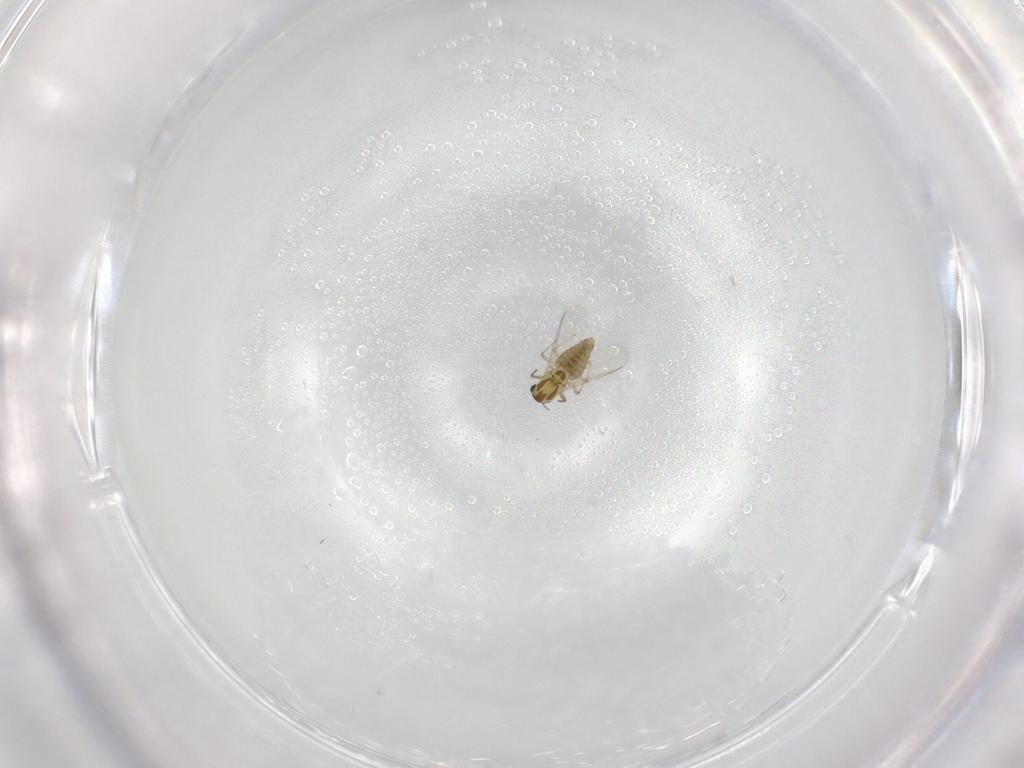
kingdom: Animalia
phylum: Arthropoda
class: Insecta
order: Diptera
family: Chironomidae
